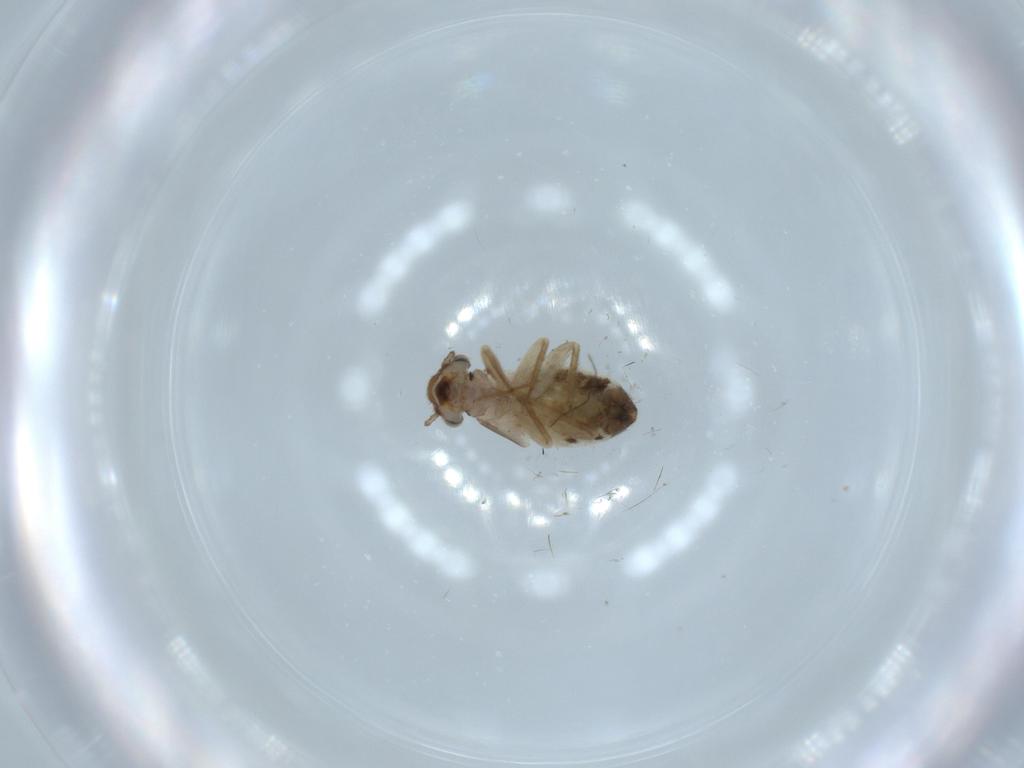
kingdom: Animalia
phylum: Arthropoda
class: Insecta
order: Psocodea
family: Lepidopsocidae
